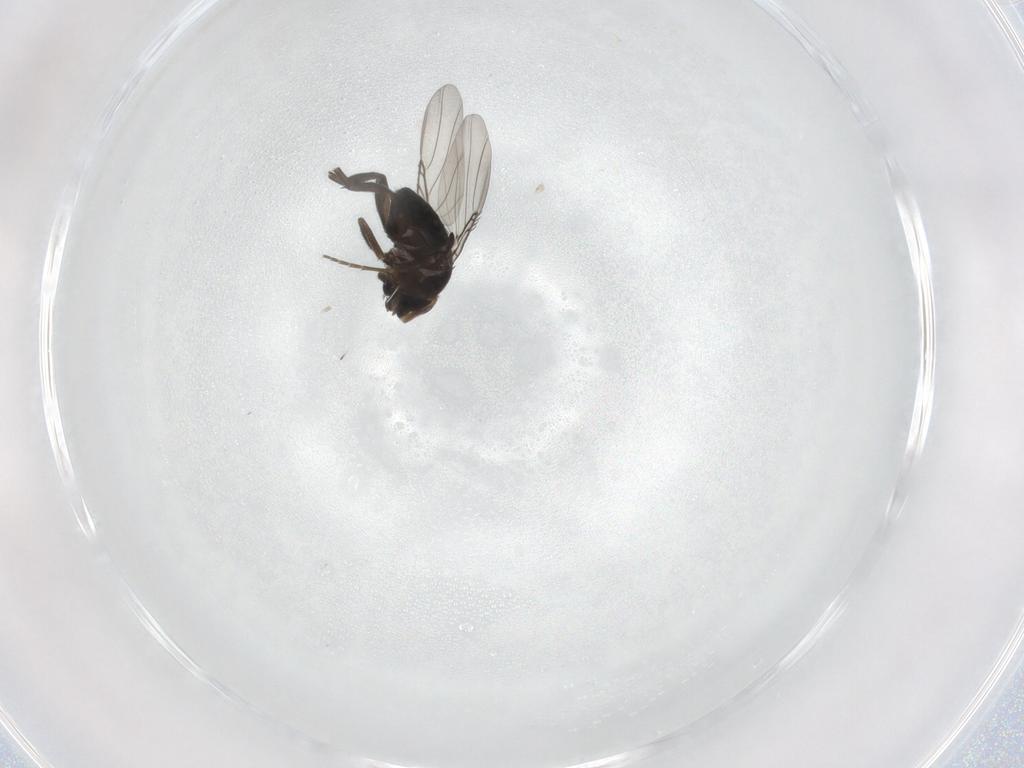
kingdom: Animalia
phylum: Arthropoda
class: Insecta
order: Diptera
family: Phoridae
